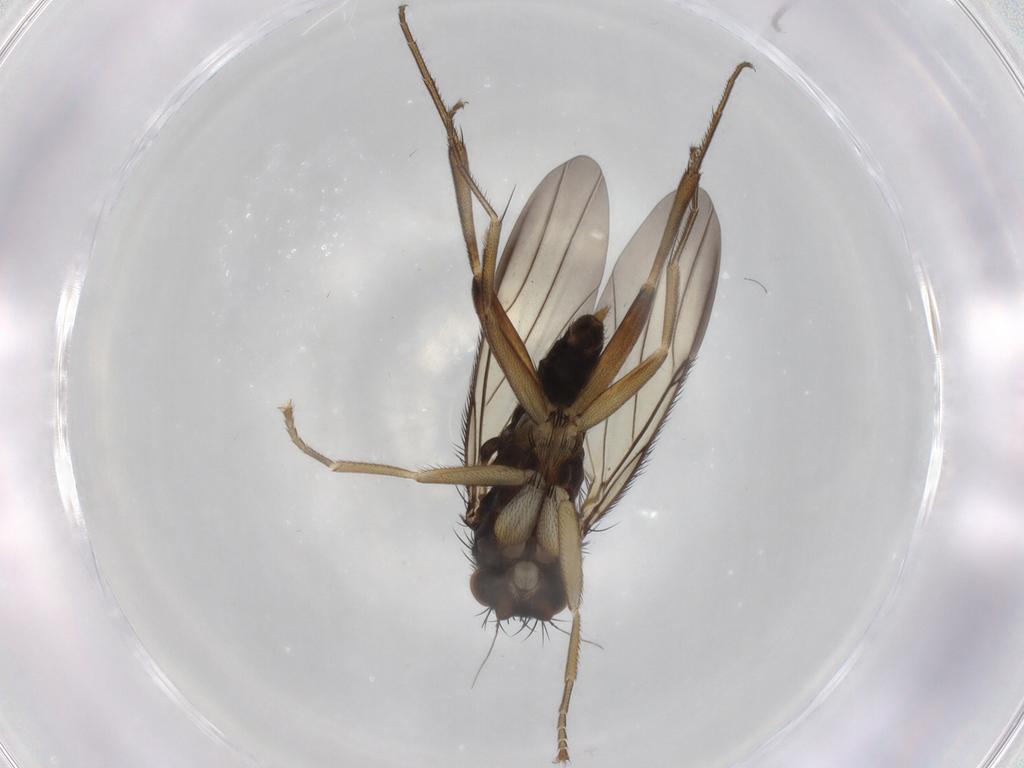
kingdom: Animalia
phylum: Arthropoda
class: Insecta
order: Diptera
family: Phoridae
